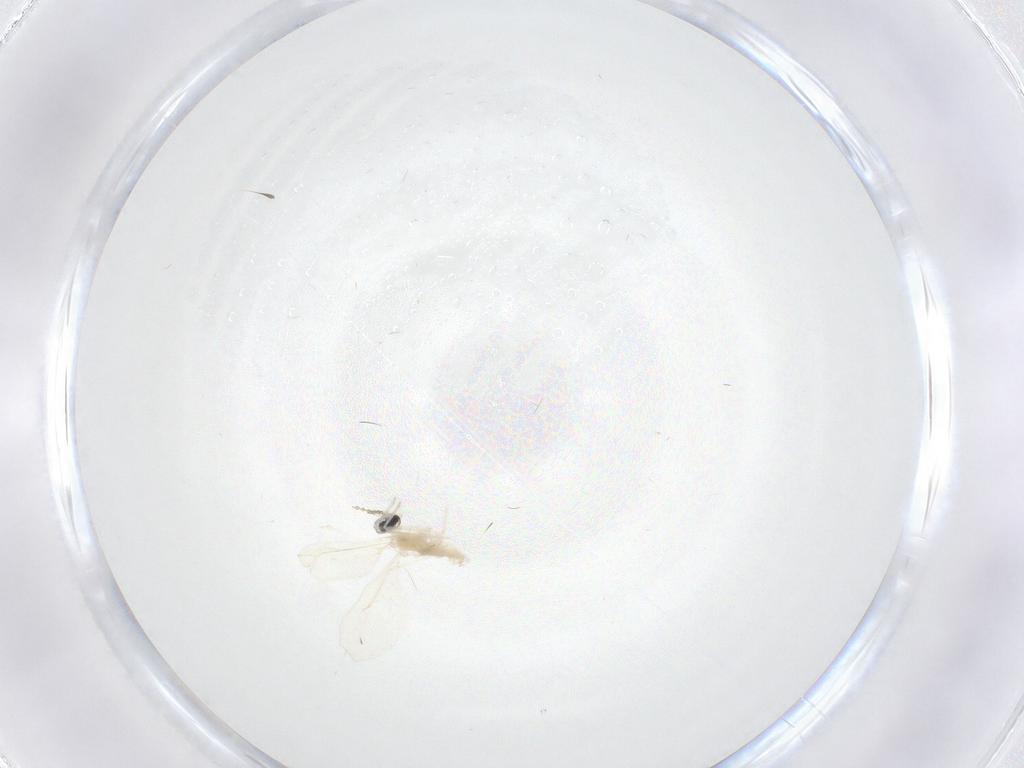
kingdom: Animalia
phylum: Arthropoda
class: Insecta
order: Diptera
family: Cecidomyiidae
